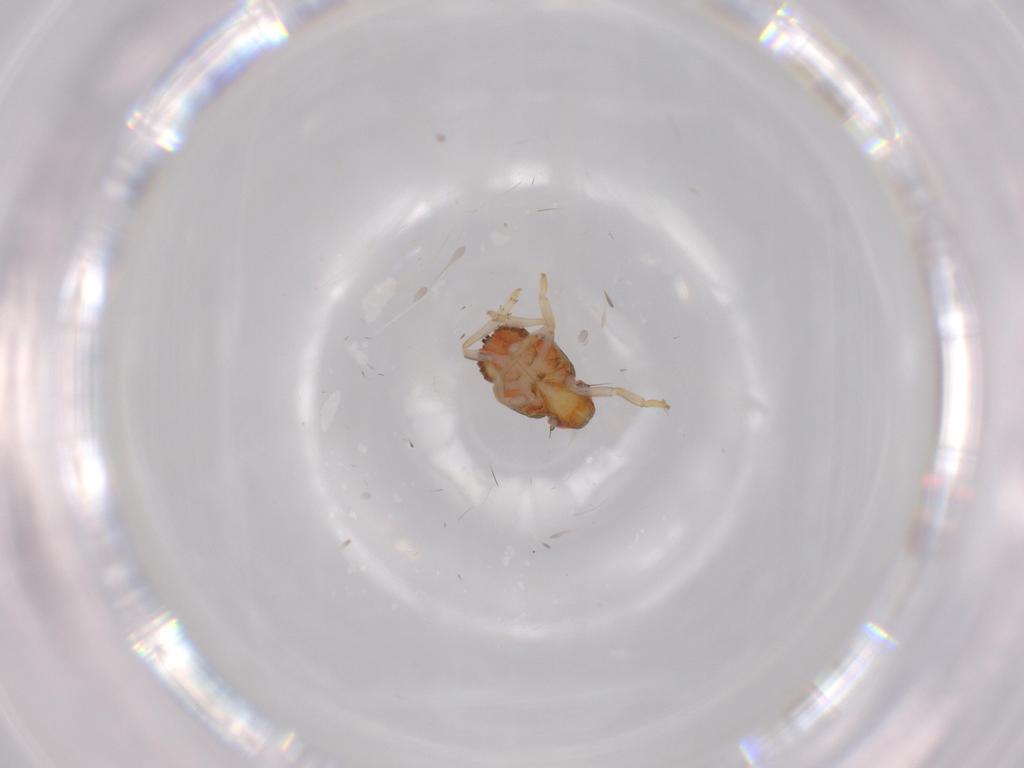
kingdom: Animalia
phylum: Arthropoda
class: Insecta
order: Hemiptera
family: Issidae
